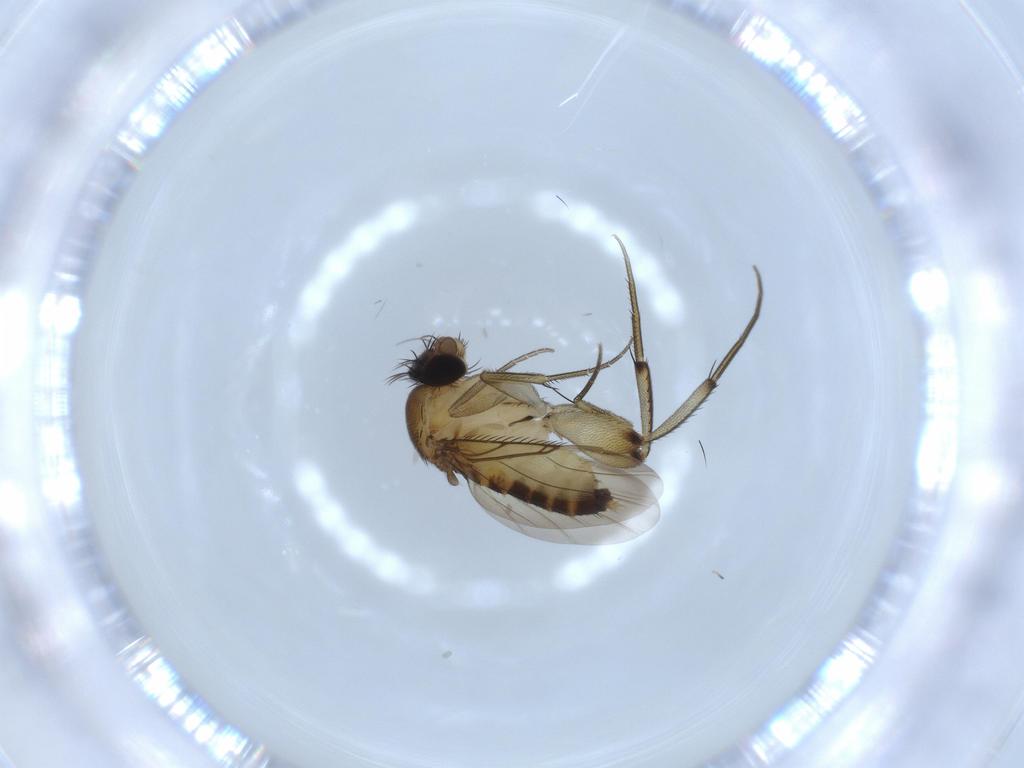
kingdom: Animalia
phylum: Arthropoda
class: Insecta
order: Diptera
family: Phoridae
